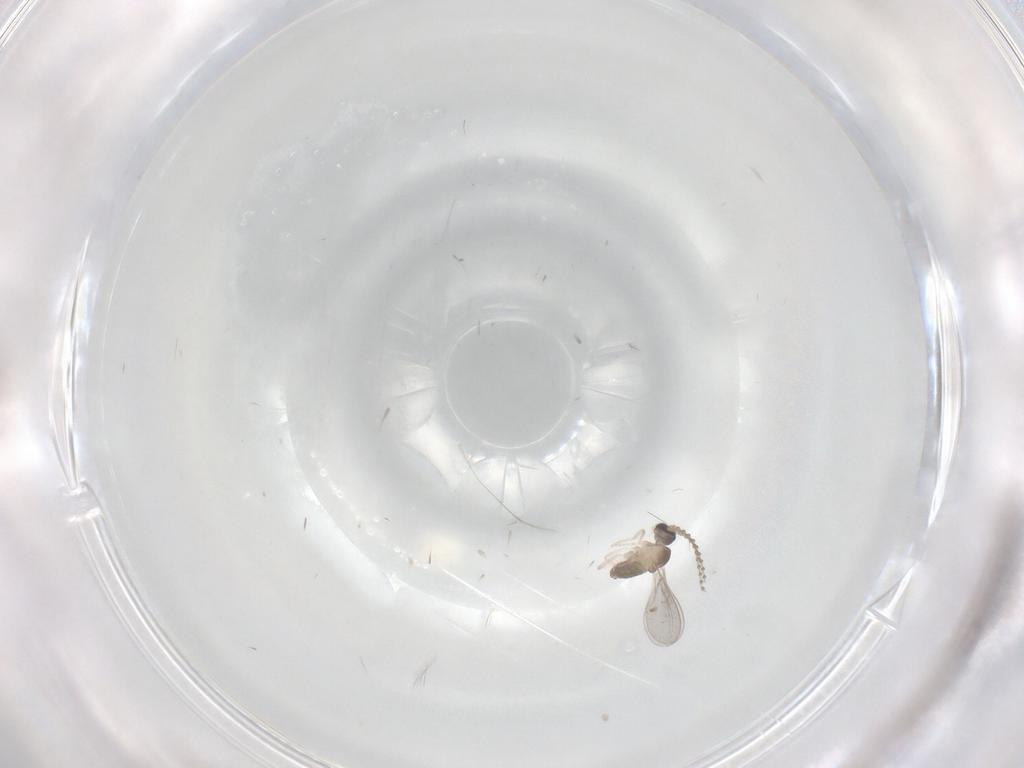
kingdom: Animalia
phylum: Arthropoda
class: Insecta
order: Diptera
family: Cecidomyiidae
